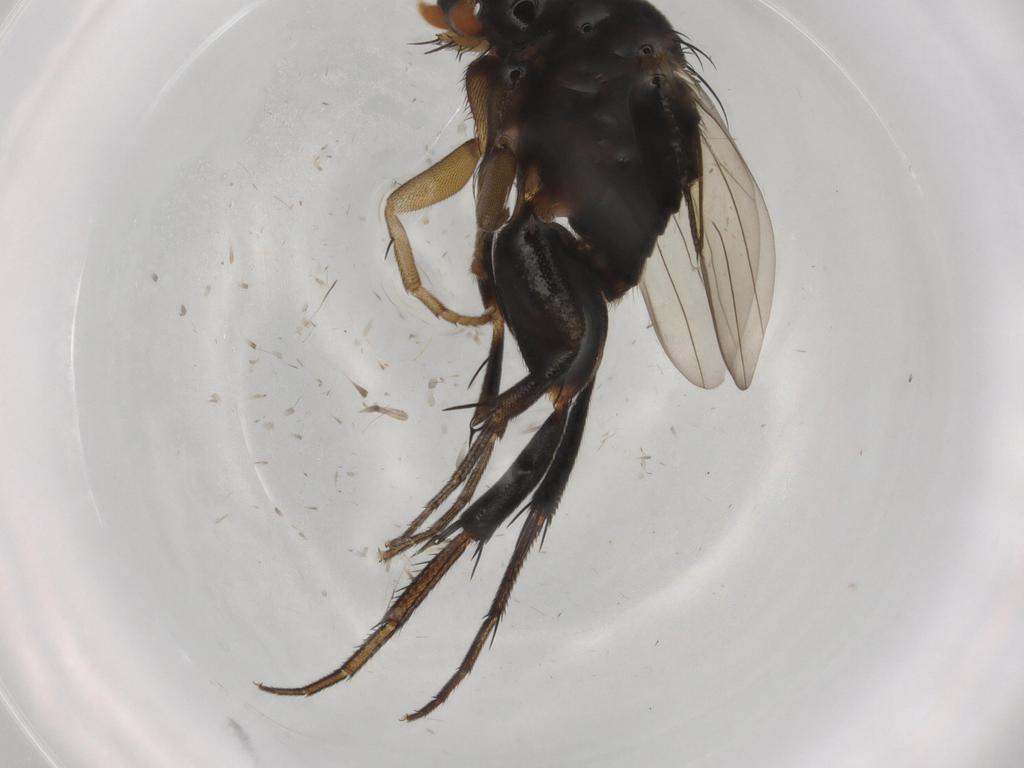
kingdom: Animalia
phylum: Arthropoda
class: Insecta
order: Diptera
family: Phoridae
